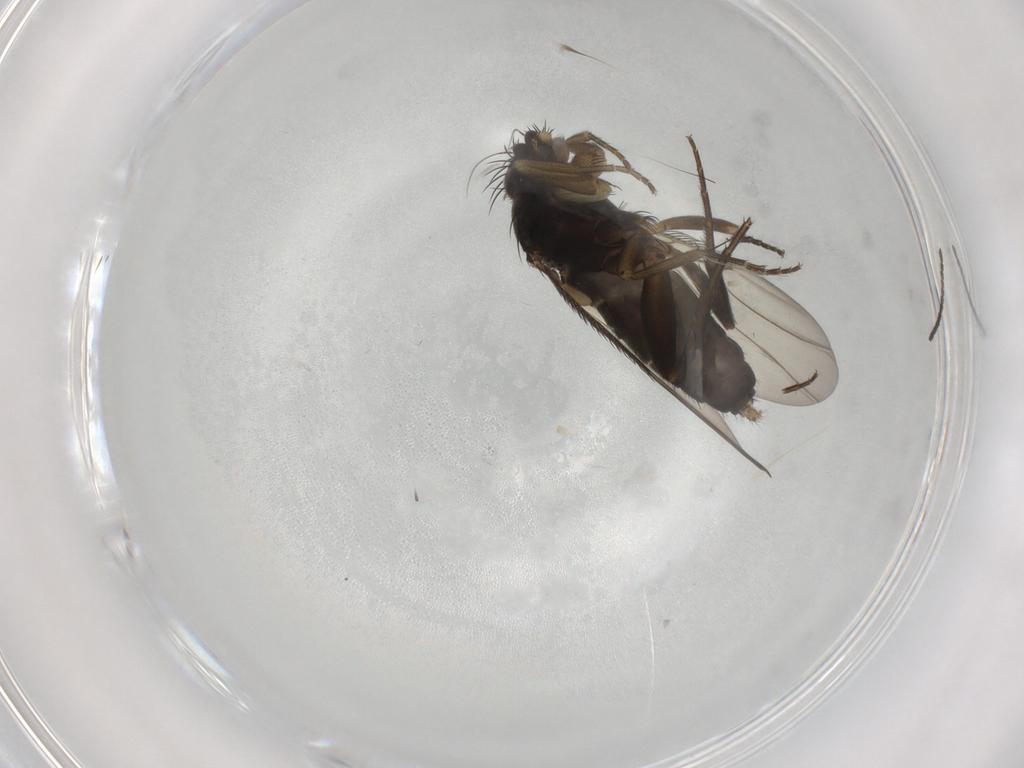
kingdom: Animalia
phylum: Arthropoda
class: Insecta
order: Diptera
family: Phoridae
